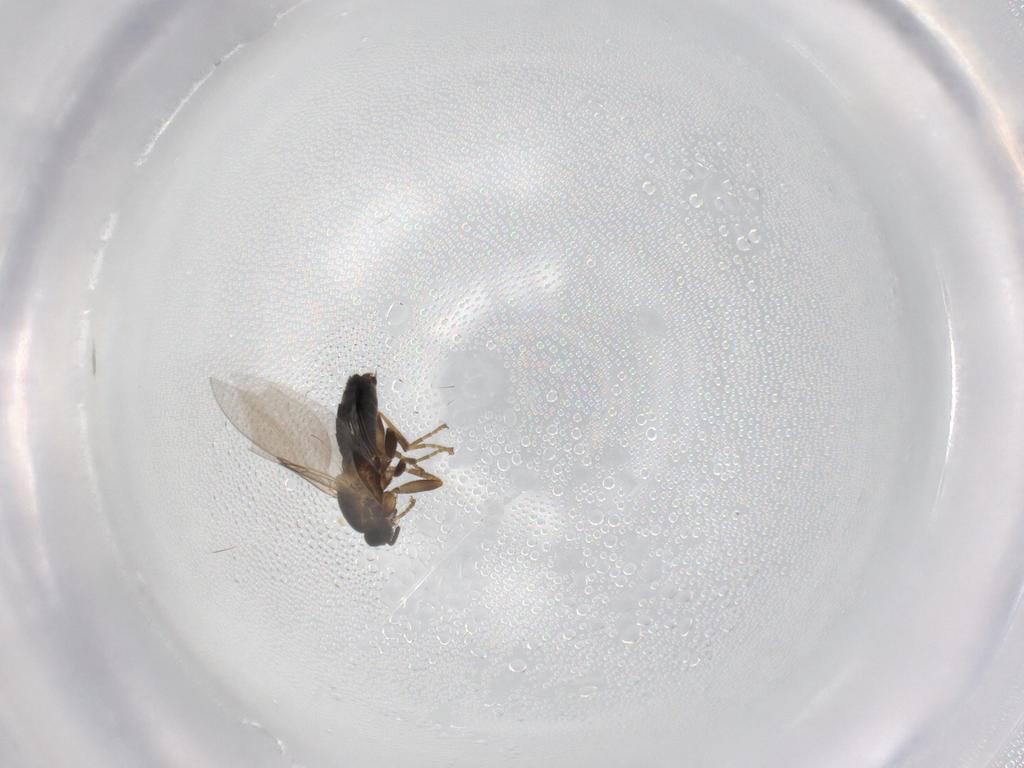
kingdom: Animalia
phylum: Arthropoda
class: Insecta
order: Diptera
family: Scatopsidae
